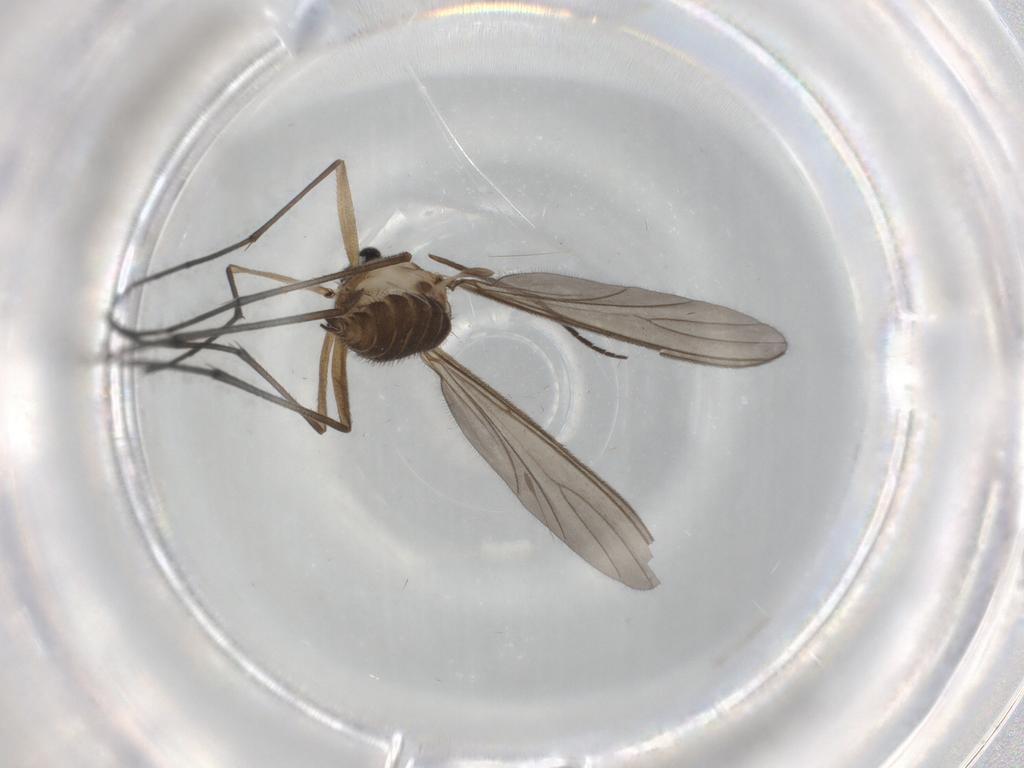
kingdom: Animalia
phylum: Arthropoda
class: Insecta
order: Diptera
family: Sciaridae
